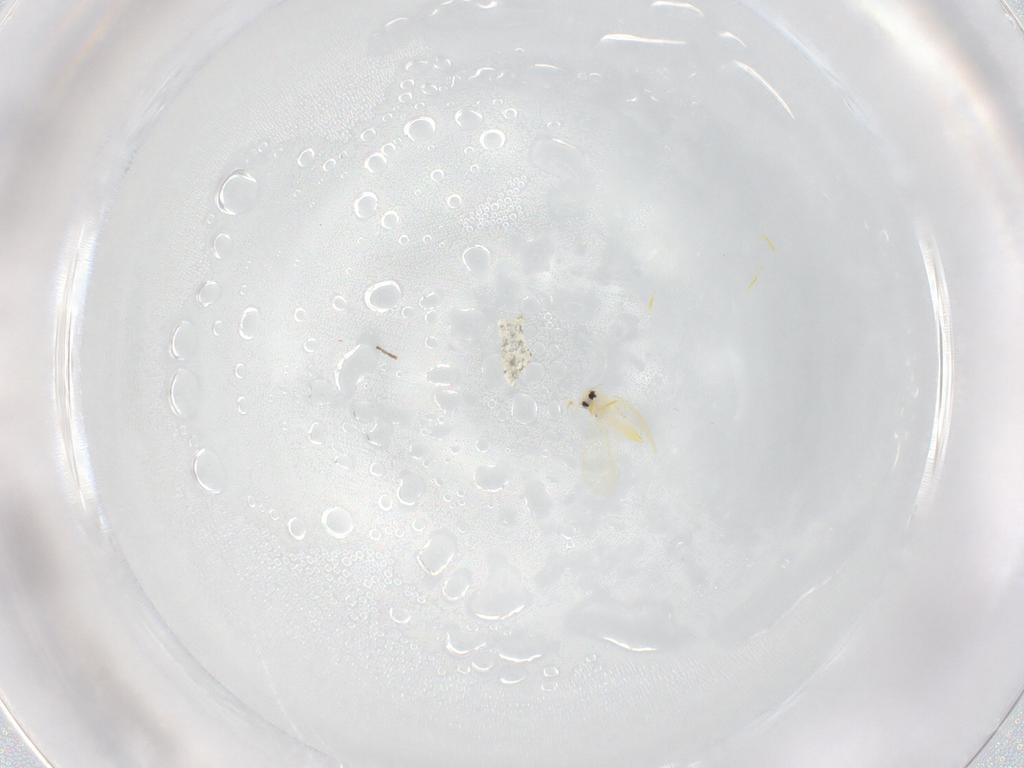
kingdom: Animalia
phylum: Arthropoda
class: Insecta
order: Hemiptera
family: Aleyrodidae
